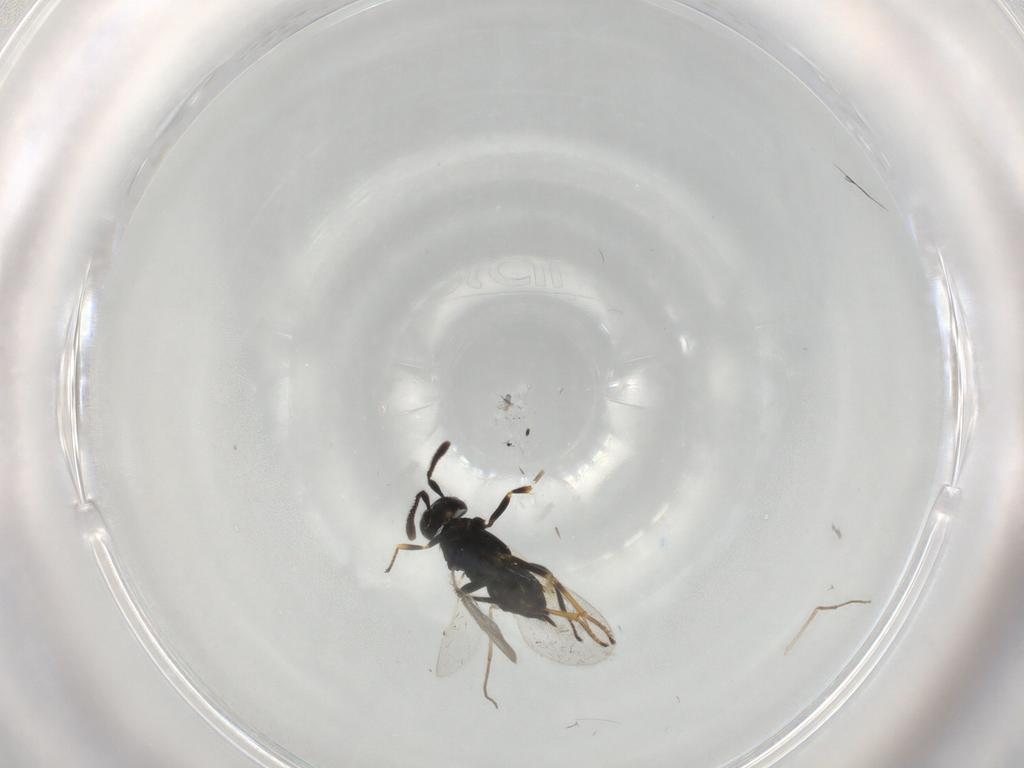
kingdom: Animalia
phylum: Arthropoda
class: Insecta
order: Hymenoptera
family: Encyrtidae
